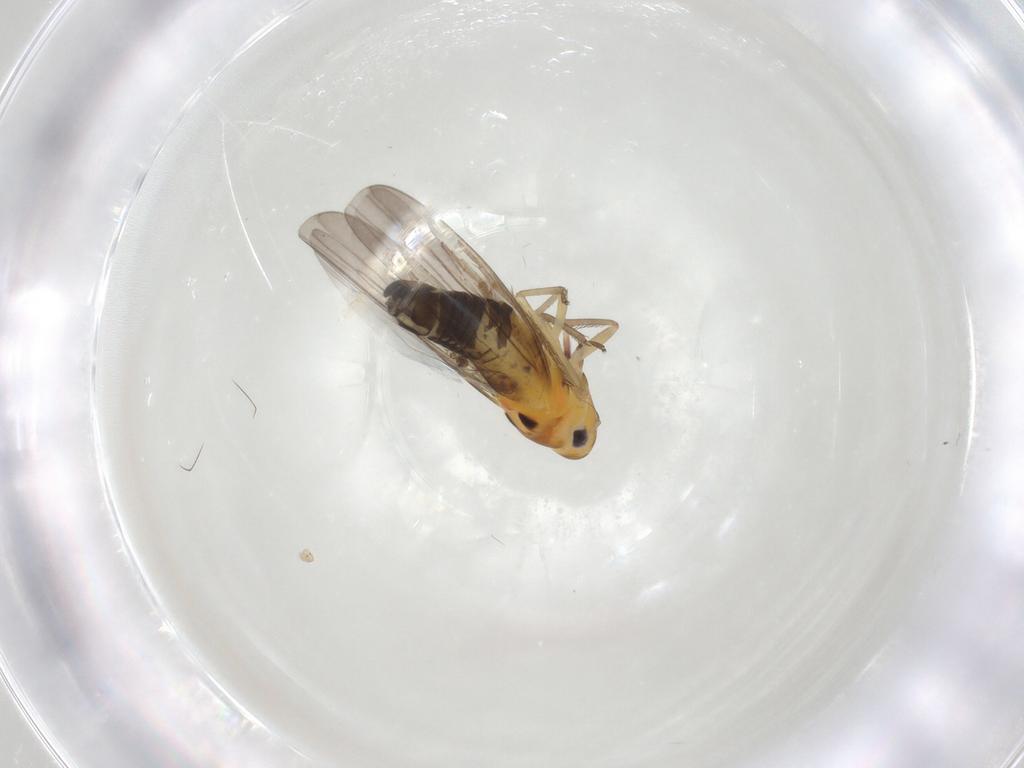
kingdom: Animalia
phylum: Arthropoda
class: Insecta
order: Hemiptera
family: Cicadellidae
